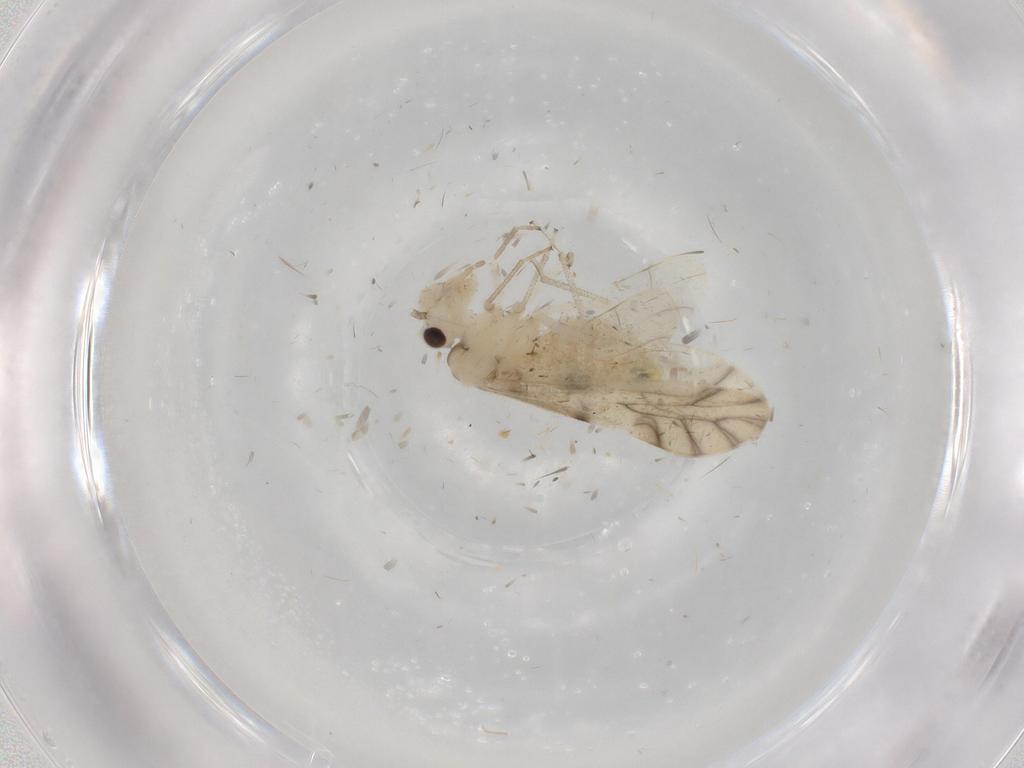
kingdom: Animalia
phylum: Arthropoda
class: Insecta
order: Psocodea
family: Caeciliusidae
